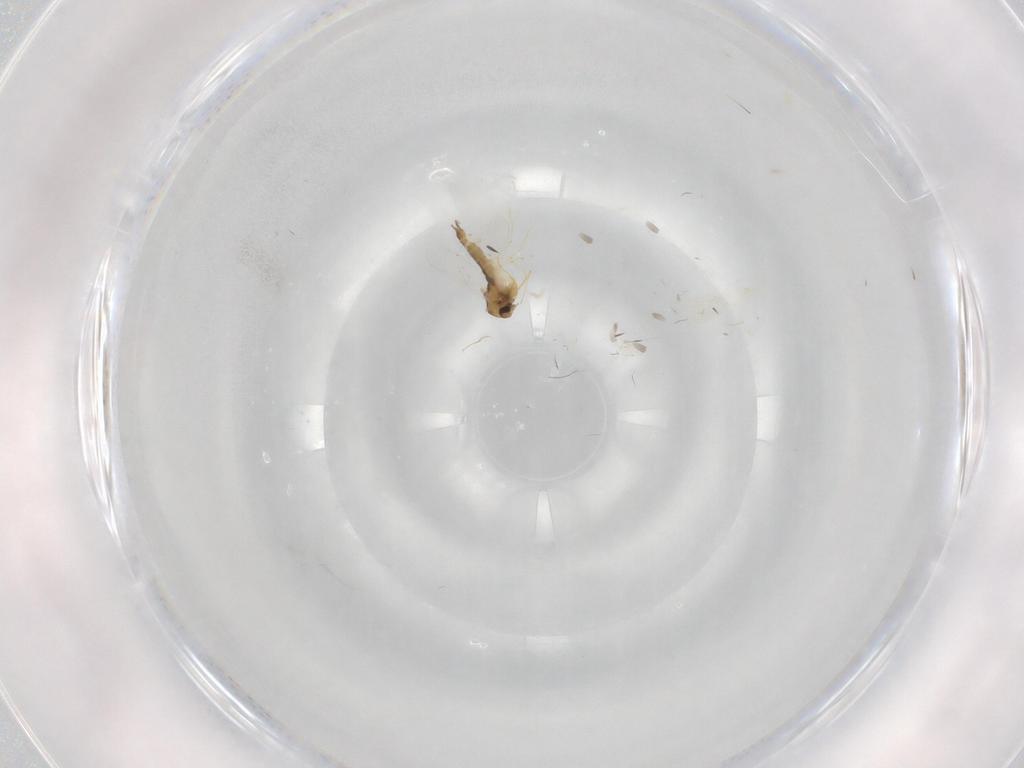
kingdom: Animalia
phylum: Arthropoda
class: Insecta
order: Diptera
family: Chironomidae
